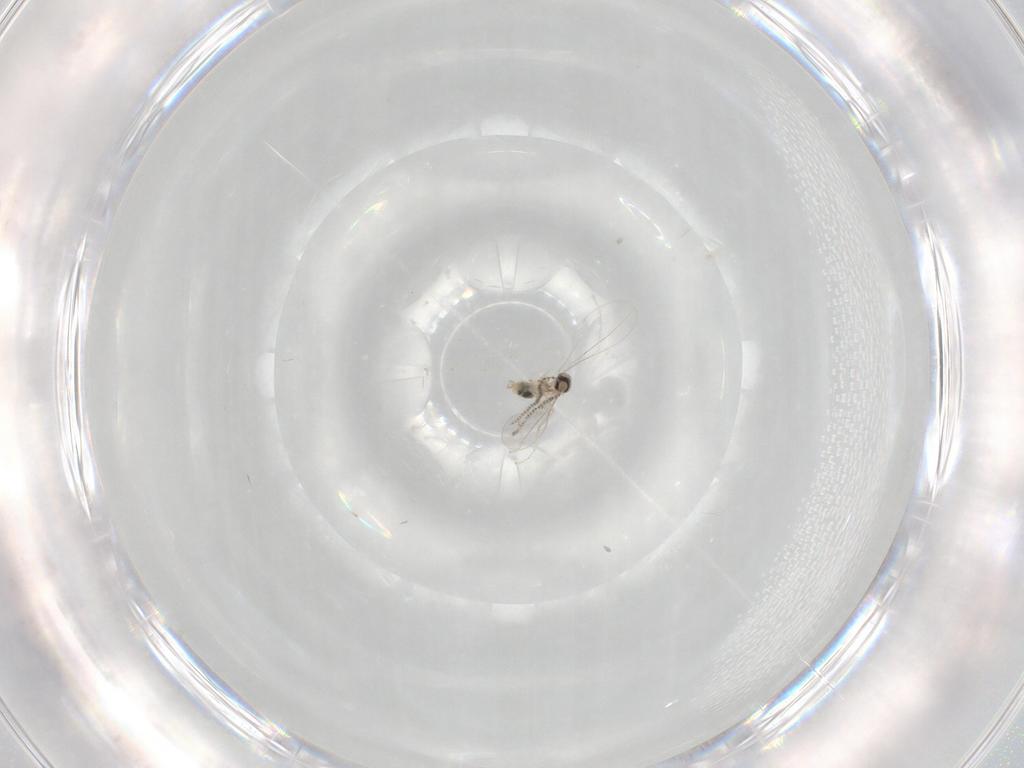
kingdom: Animalia
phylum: Arthropoda
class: Insecta
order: Diptera
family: Cecidomyiidae
